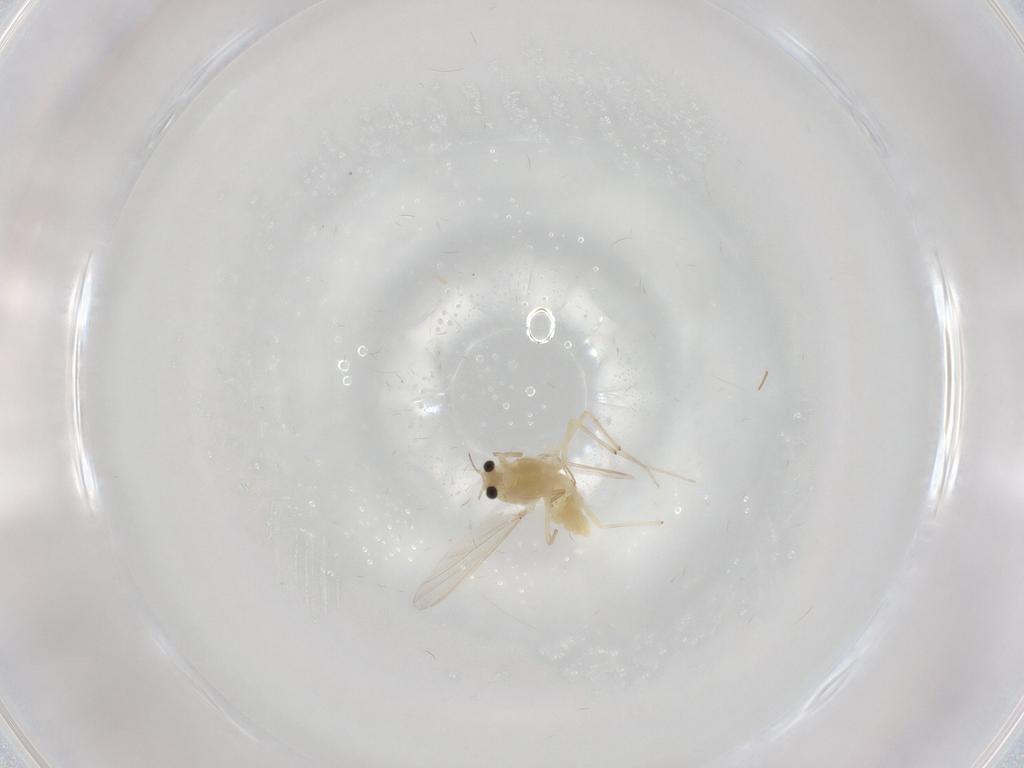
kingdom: Animalia
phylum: Arthropoda
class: Insecta
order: Diptera
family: Chironomidae
